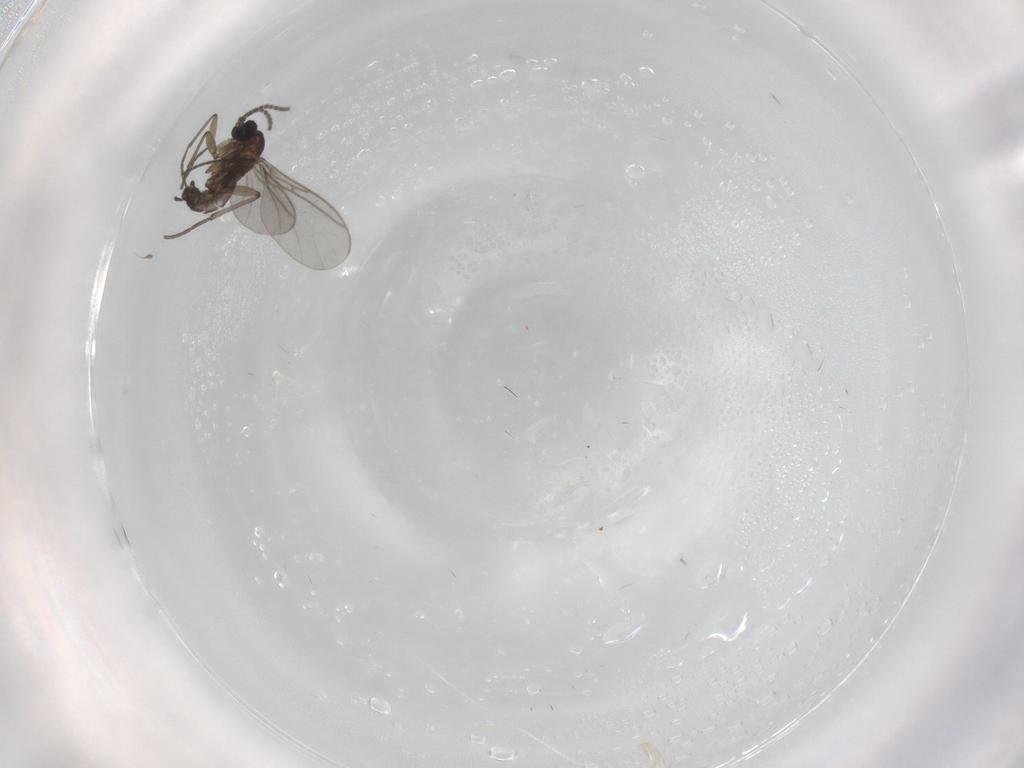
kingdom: Animalia
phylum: Arthropoda
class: Insecta
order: Diptera
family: Sciaridae
